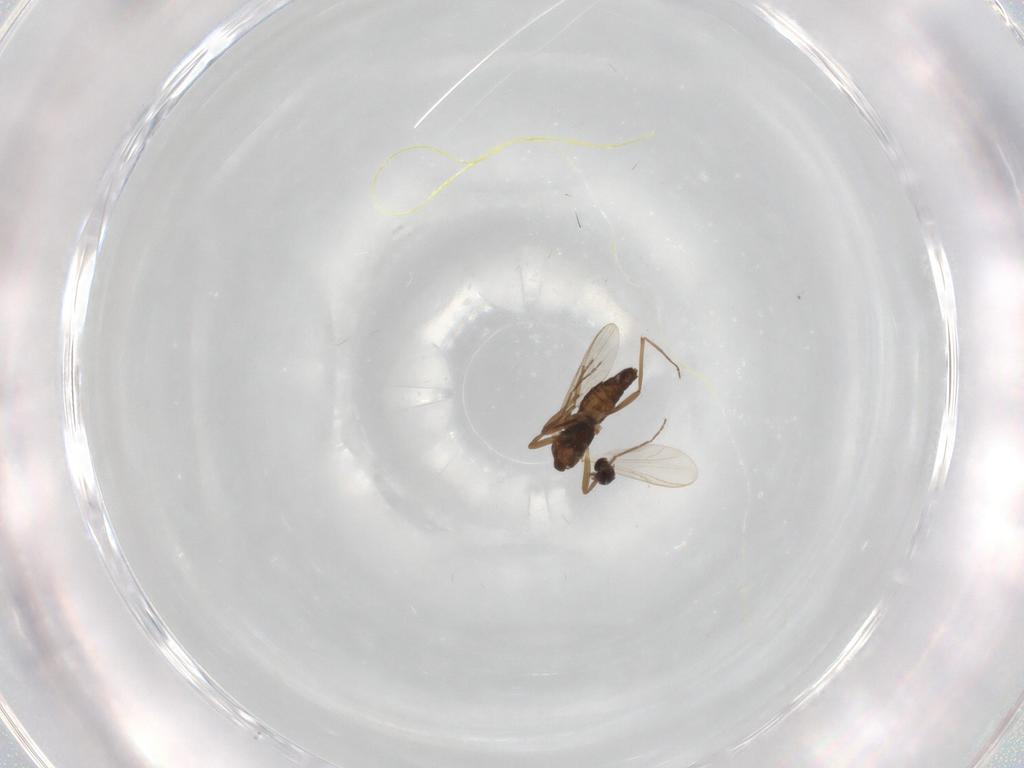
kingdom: Animalia
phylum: Arthropoda
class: Insecta
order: Diptera
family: Chironomidae
